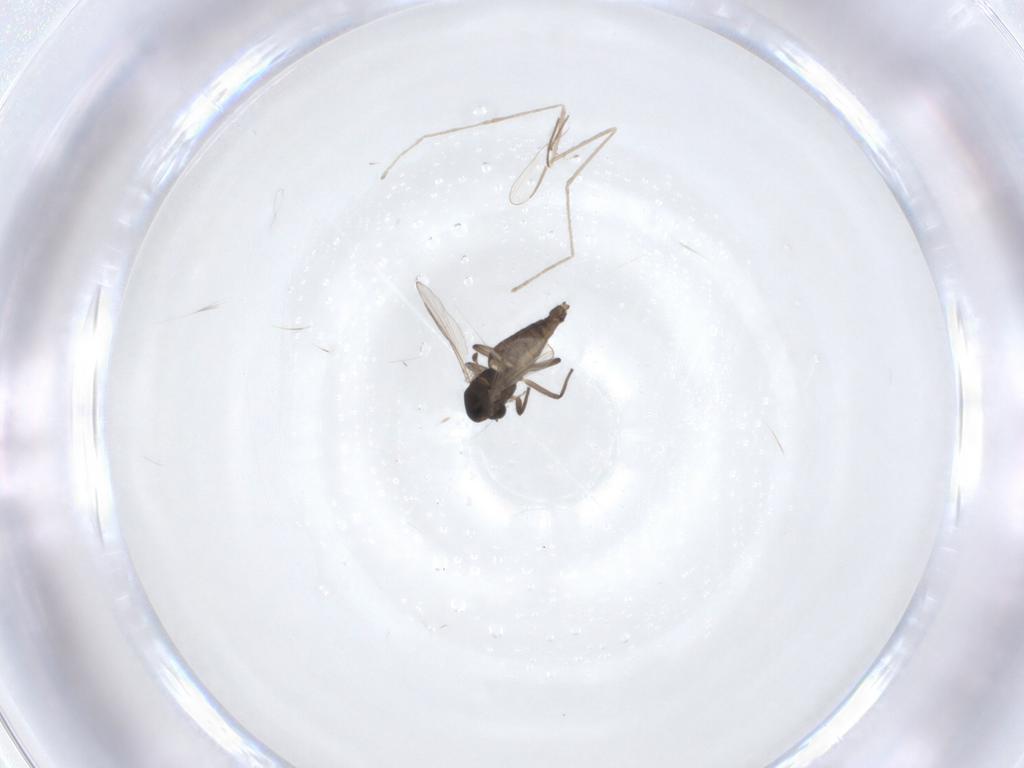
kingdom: Animalia
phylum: Arthropoda
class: Insecta
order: Diptera
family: Chironomidae
